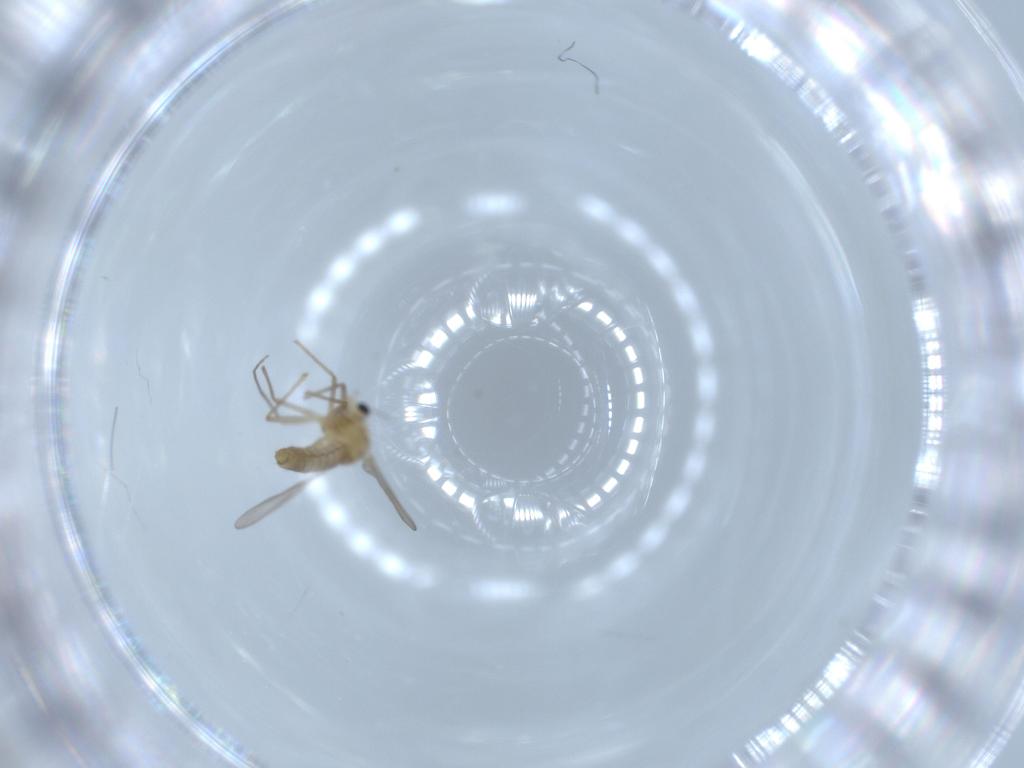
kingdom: Animalia
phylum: Arthropoda
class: Insecta
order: Diptera
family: Chironomidae
